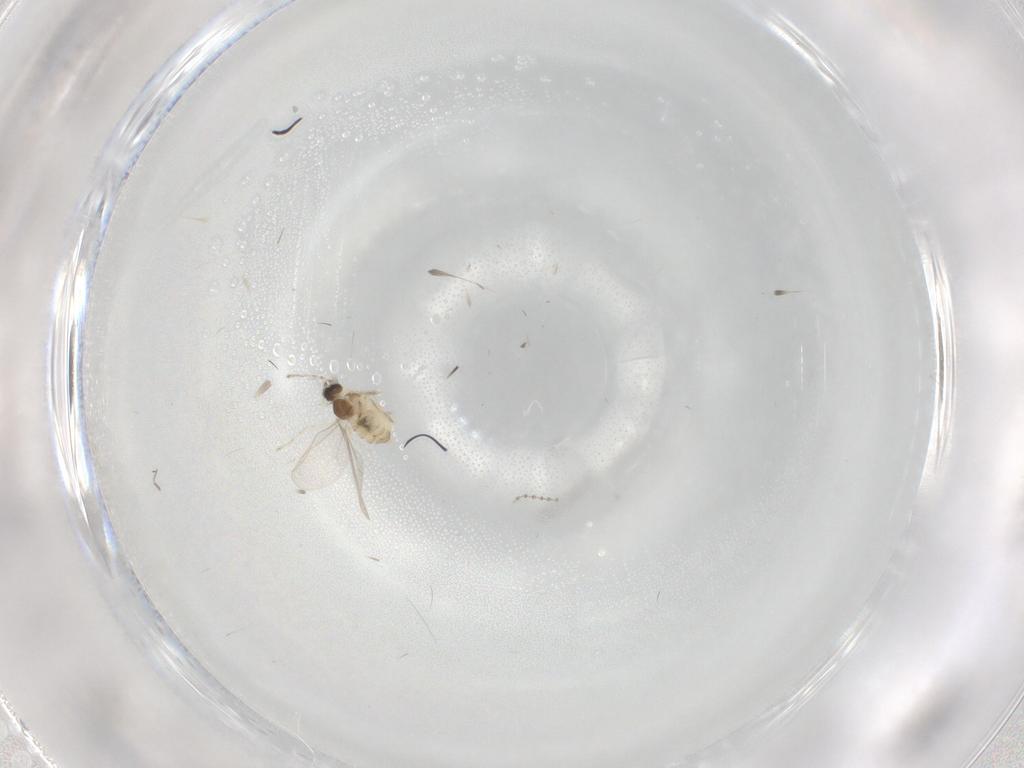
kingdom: Animalia
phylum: Arthropoda
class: Insecta
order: Diptera
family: Cecidomyiidae
